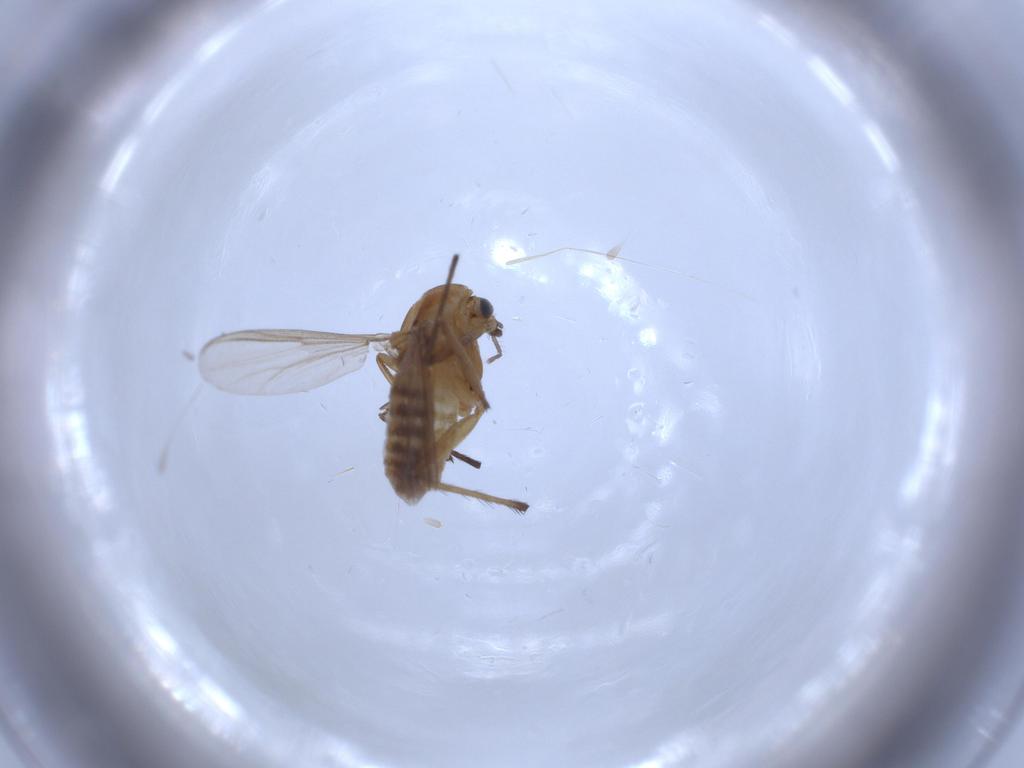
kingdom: Animalia
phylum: Arthropoda
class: Insecta
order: Diptera
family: Chironomidae
